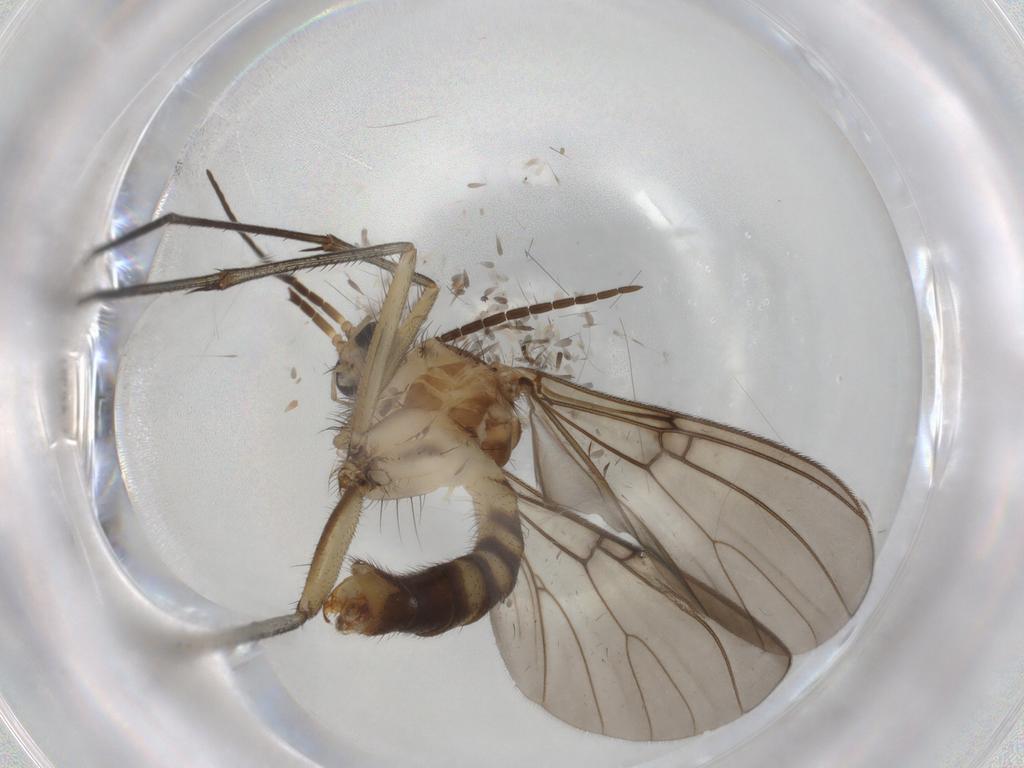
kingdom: Animalia
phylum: Arthropoda
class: Insecta
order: Diptera
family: Mycetophilidae
